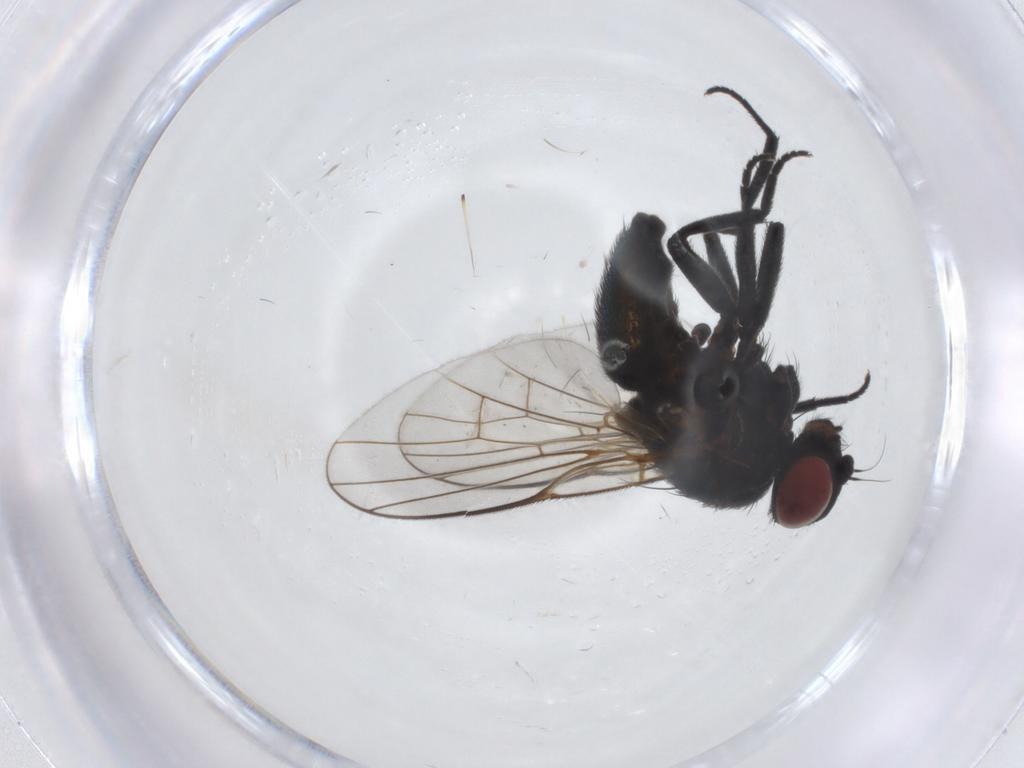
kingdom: Animalia
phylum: Arthropoda
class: Insecta
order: Diptera
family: Agromyzidae
